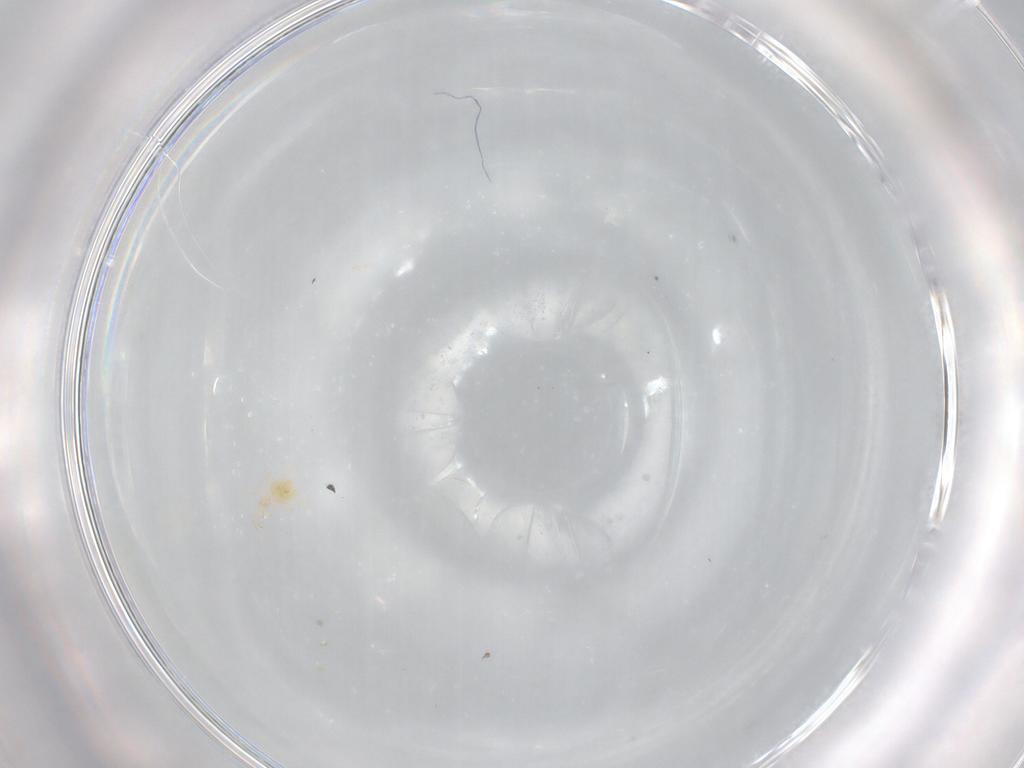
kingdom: Animalia
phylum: Arthropoda
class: Arachnida
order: Trombidiformes
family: Cunaxidae
